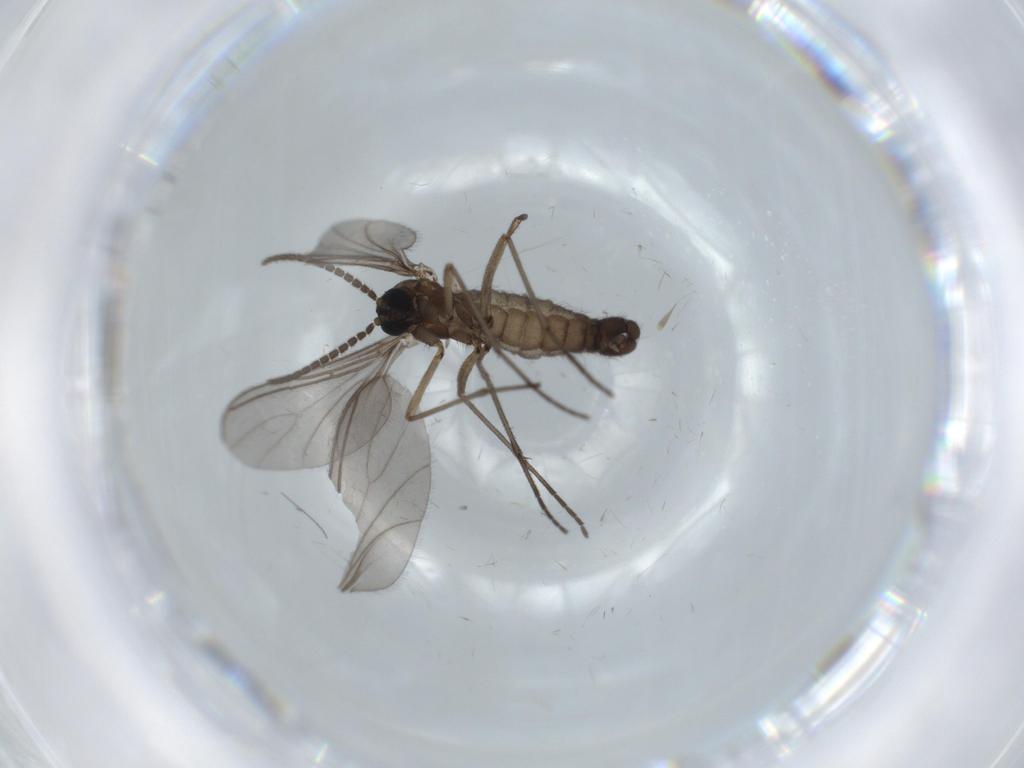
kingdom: Animalia
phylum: Arthropoda
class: Insecta
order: Diptera
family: Sciaridae
